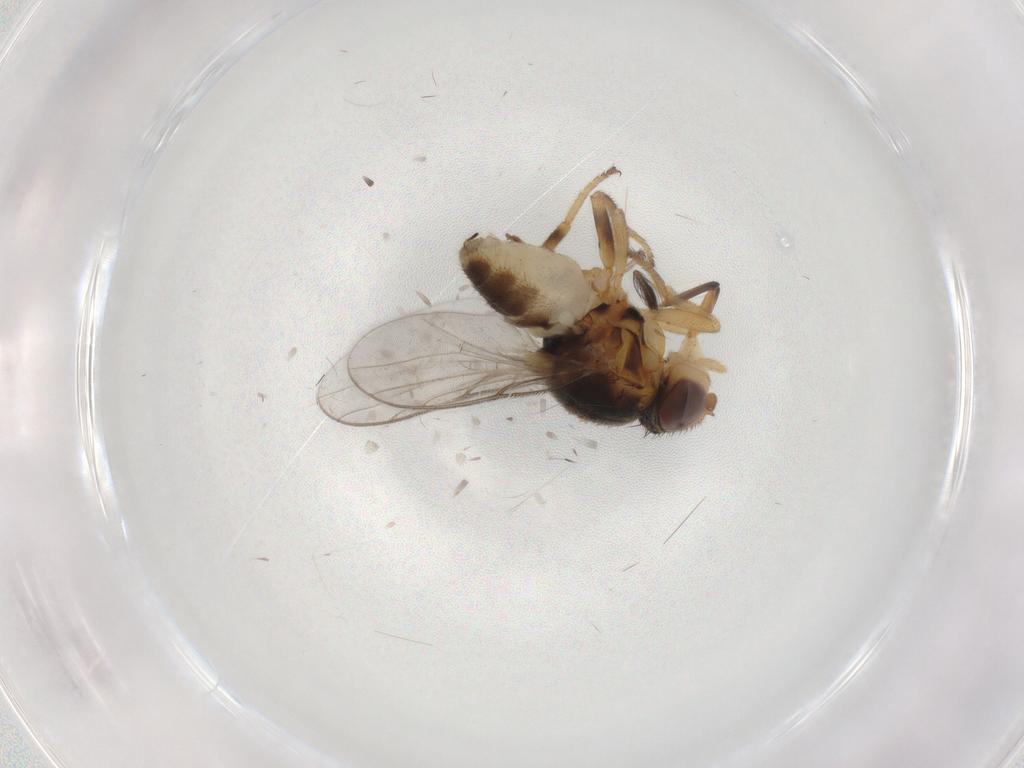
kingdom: Animalia
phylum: Arthropoda
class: Insecta
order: Diptera
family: Chloropidae
